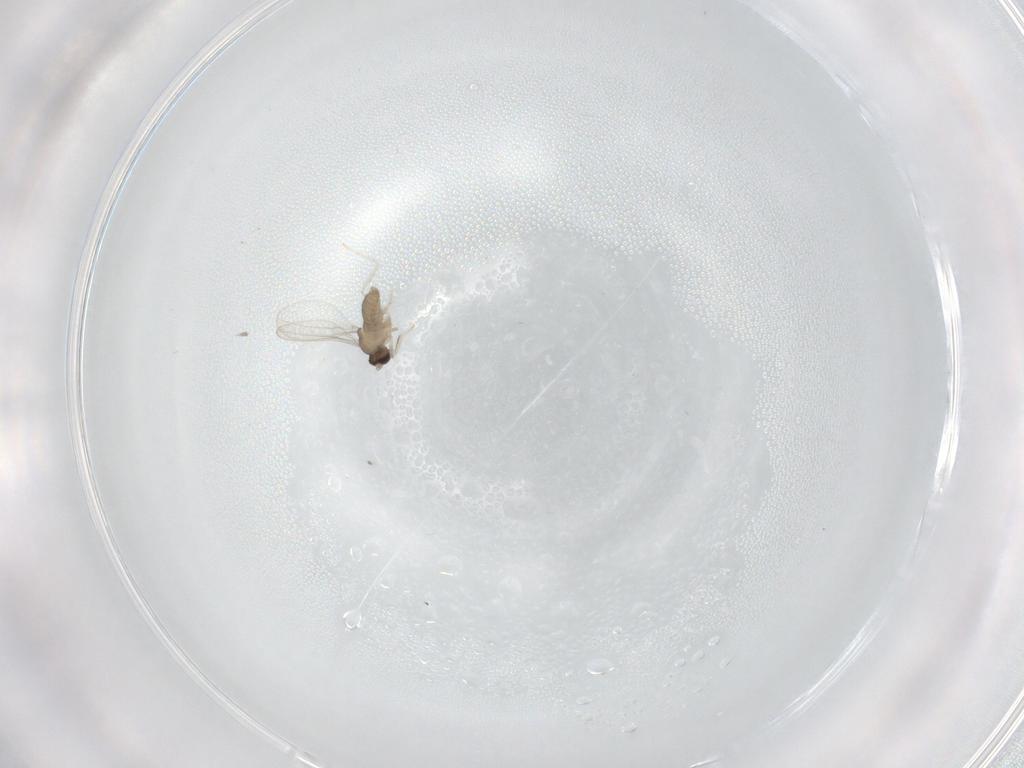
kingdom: Animalia
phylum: Arthropoda
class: Insecta
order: Diptera
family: Cecidomyiidae
